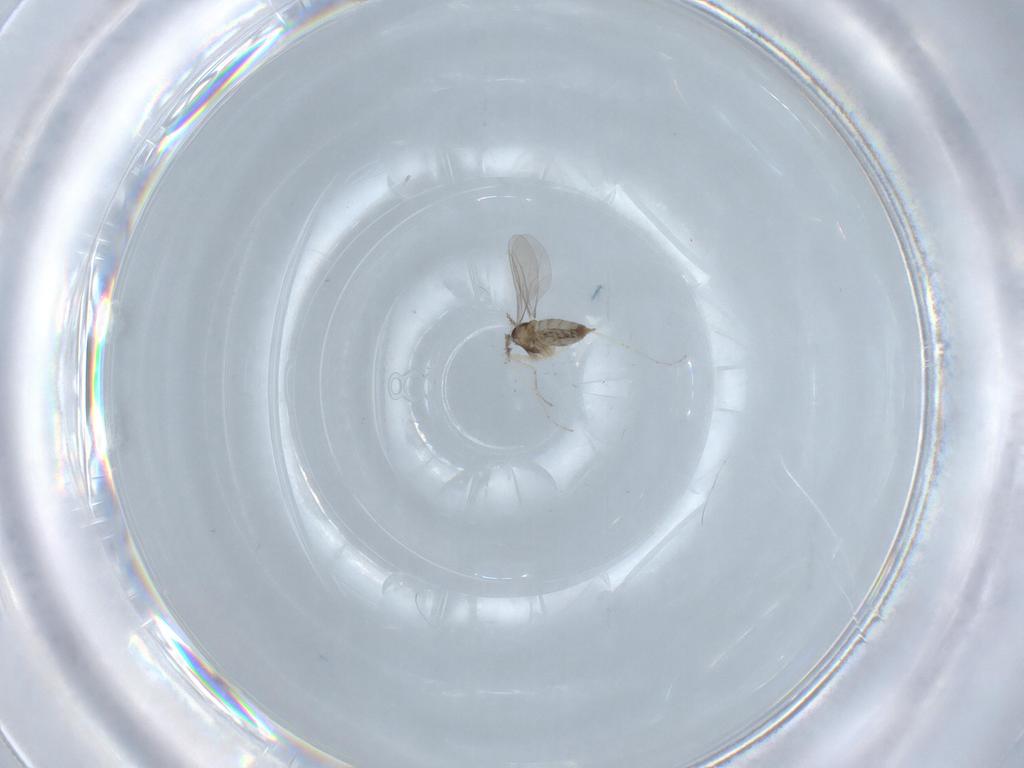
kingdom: Animalia
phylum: Arthropoda
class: Insecta
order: Diptera
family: Cecidomyiidae
